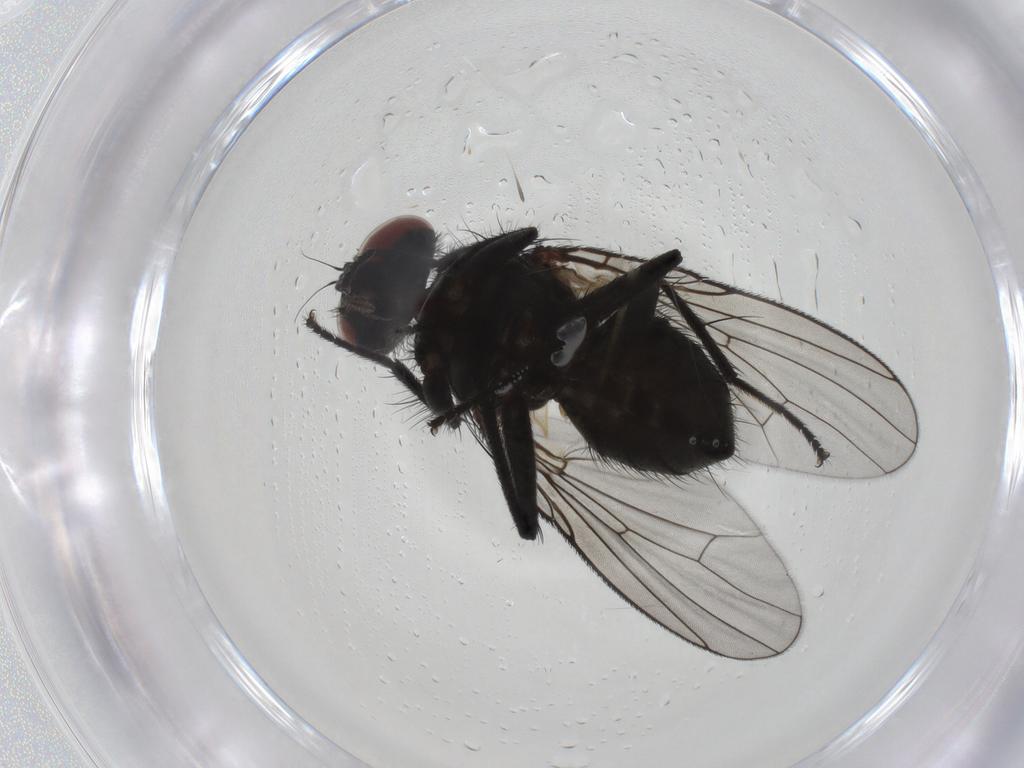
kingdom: Animalia
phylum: Arthropoda
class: Insecta
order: Diptera
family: Muscidae
